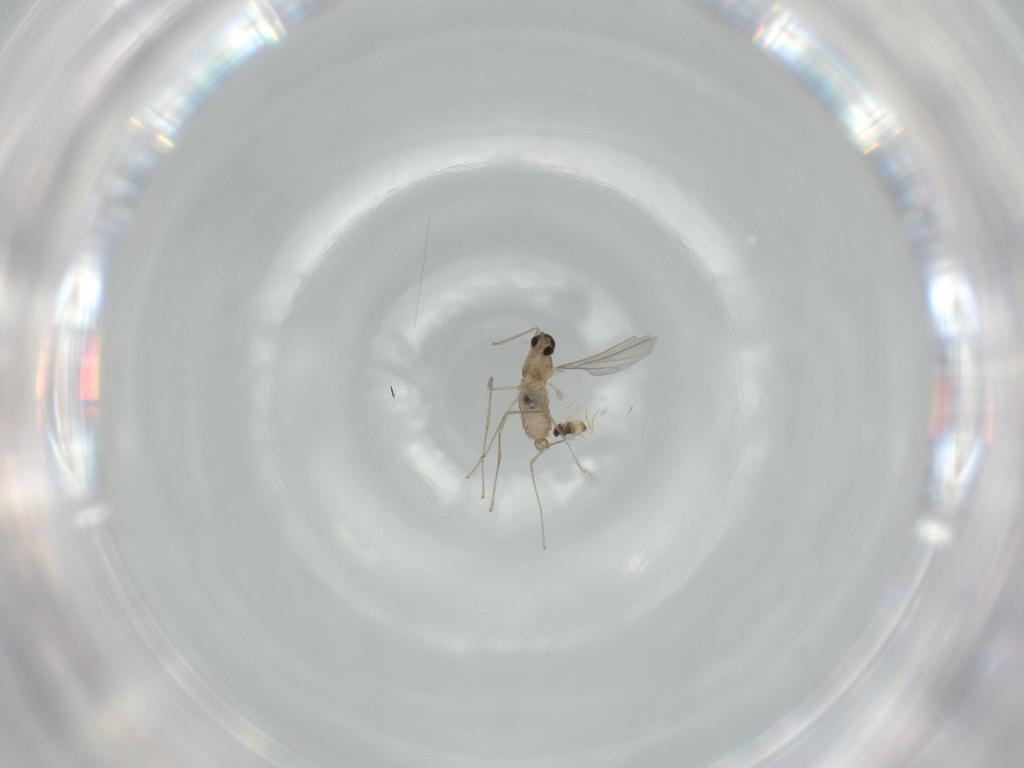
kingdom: Animalia
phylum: Arthropoda
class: Insecta
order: Diptera
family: Cecidomyiidae
